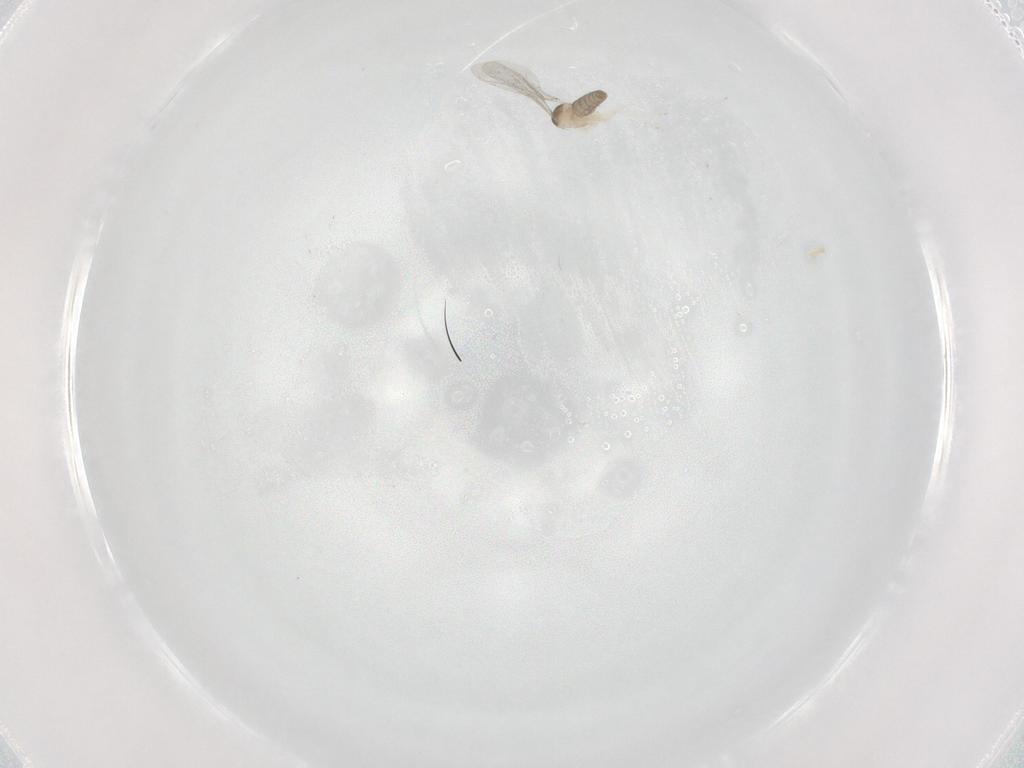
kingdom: Animalia
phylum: Arthropoda
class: Insecta
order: Diptera
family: Cecidomyiidae
